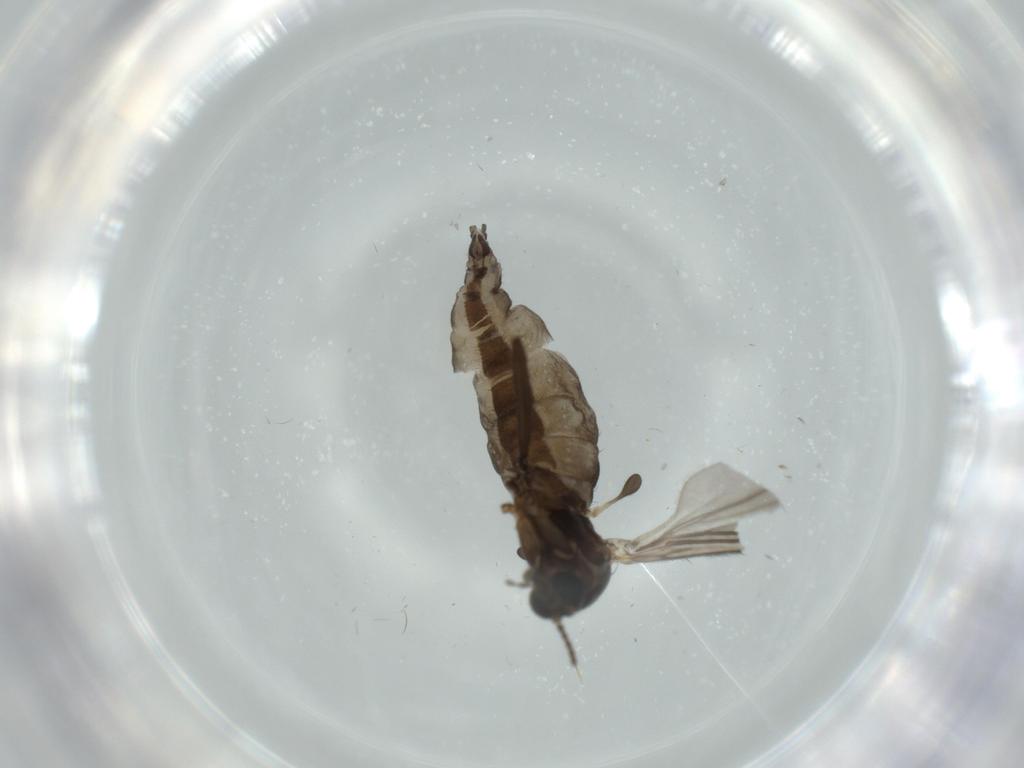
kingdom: Animalia
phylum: Arthropoda
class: Insecta
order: Diptera
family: Sciaridae
